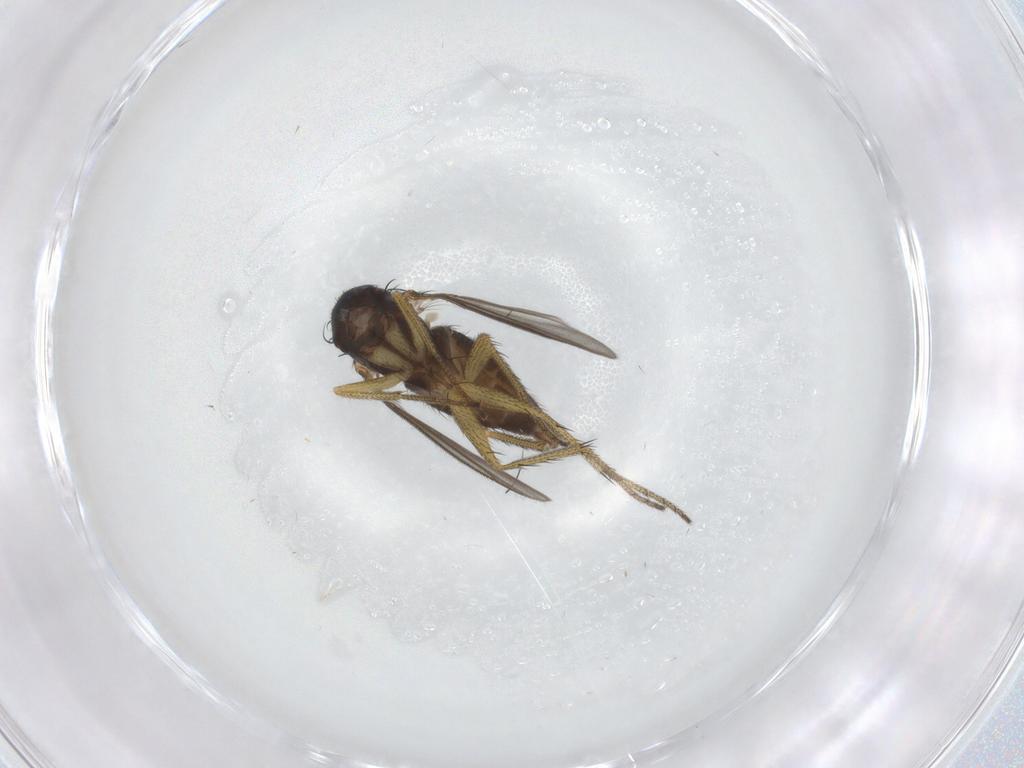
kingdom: Animalia
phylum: Arthropoda
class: Insecta
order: Diptera
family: Dolichopodidae
